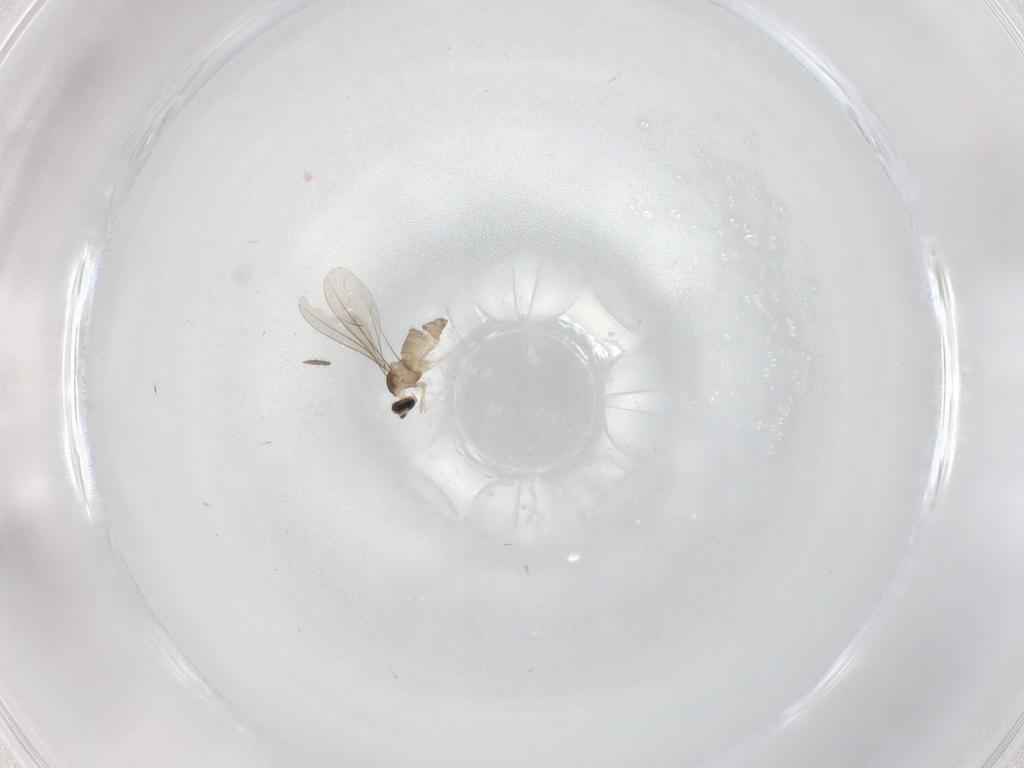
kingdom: Animalia
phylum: Arthropoda
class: Insecta
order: Diptera
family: Cecidomyiidae
